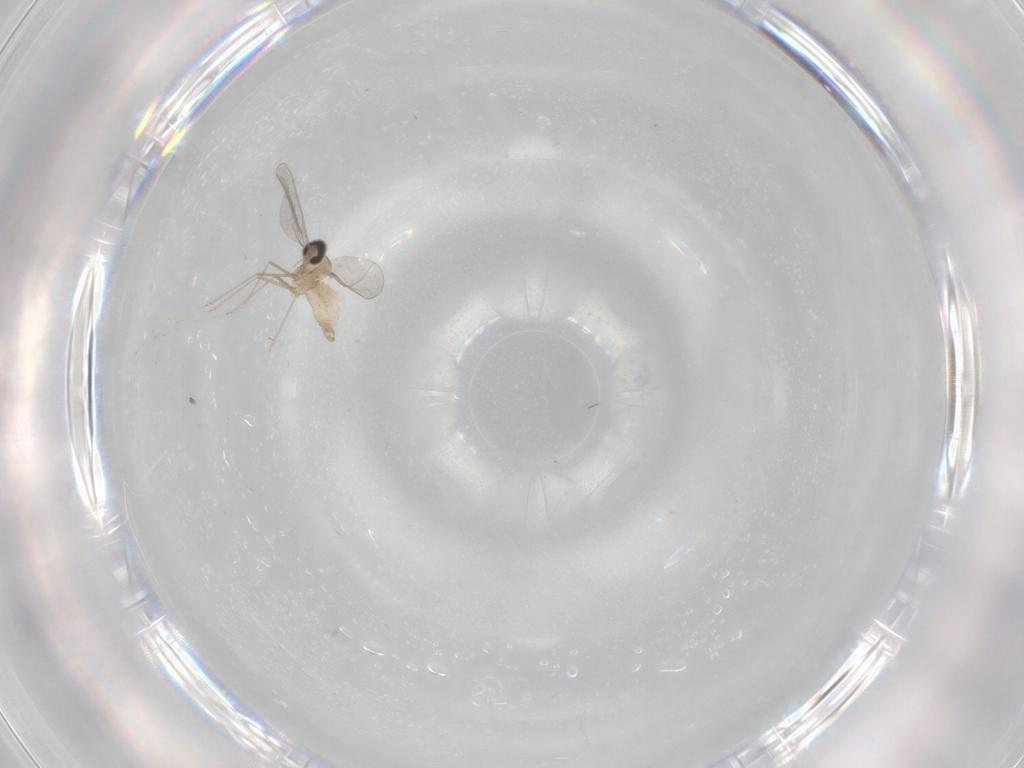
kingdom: Animalia
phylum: Arthropoda
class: Insecta
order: Diptera
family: Cecidomyiidae
